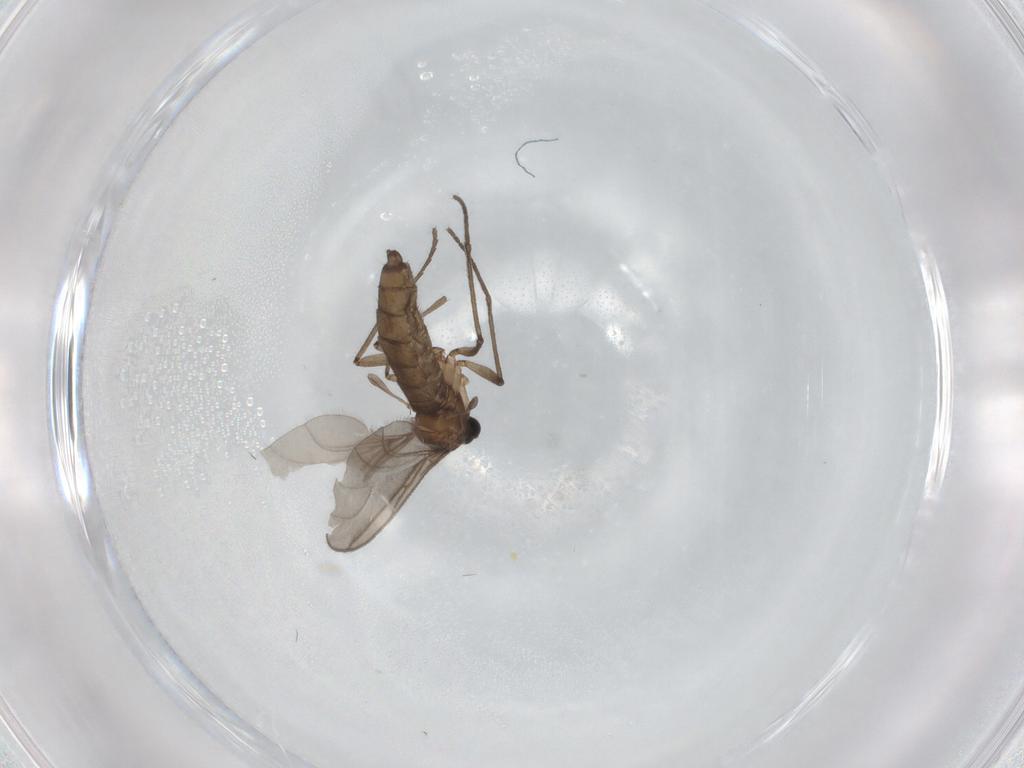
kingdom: Animalia
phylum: Arthropoda
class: Insecta
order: Diptera
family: Sciaridae
